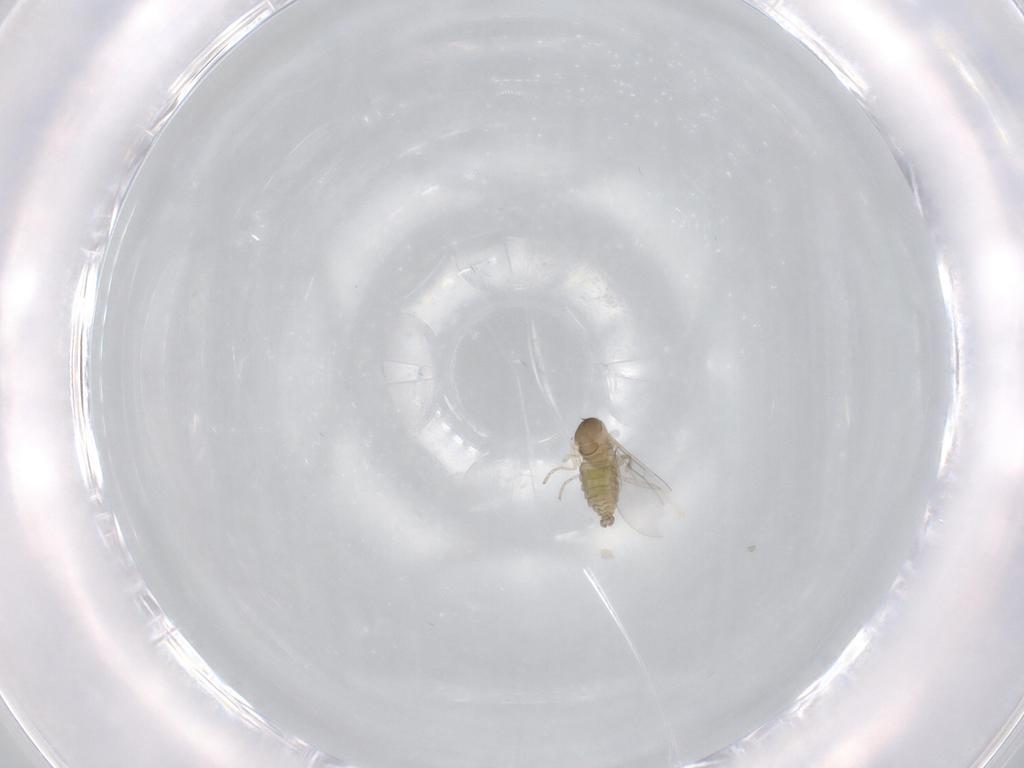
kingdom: Animalia
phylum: Arthropoda
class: Insecta
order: Diptera
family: Cecidomyiidae
